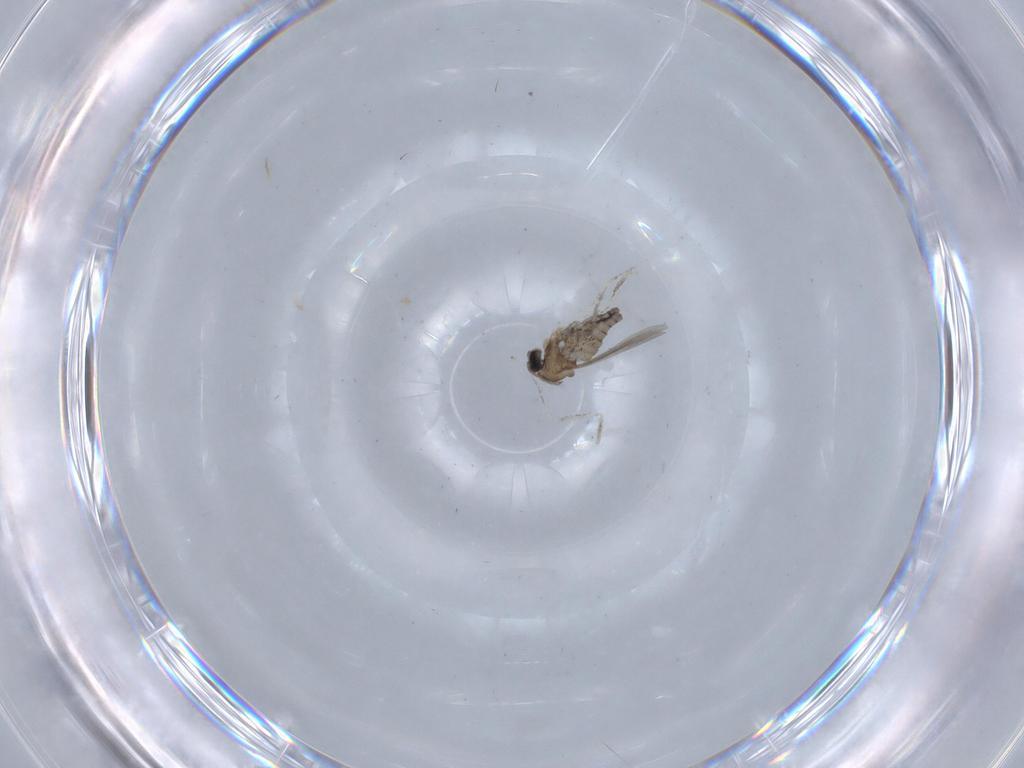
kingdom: Animalia
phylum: Arthropoda
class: Insecta
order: Diptera
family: Cecidomyiidae
